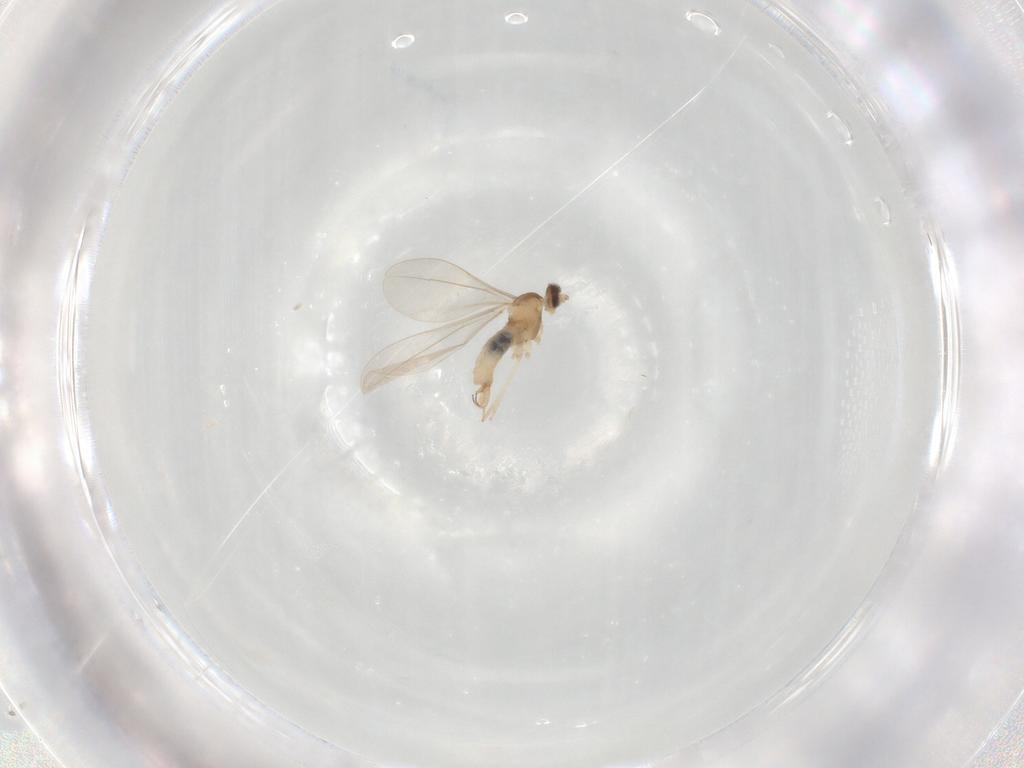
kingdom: Animalia
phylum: Arthropoda
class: Insecta
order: Diptera
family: Cecidomyiidae
